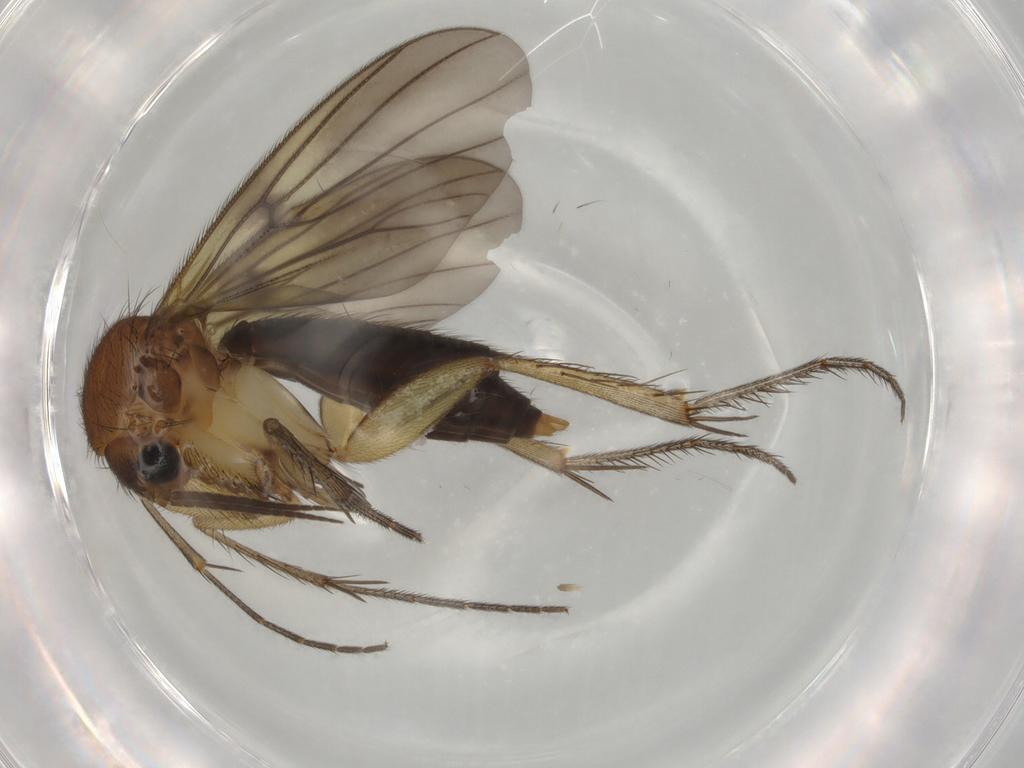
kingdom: Animalia
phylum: Arthropoda
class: Insecta
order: Diptera
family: Mycetophilidae
